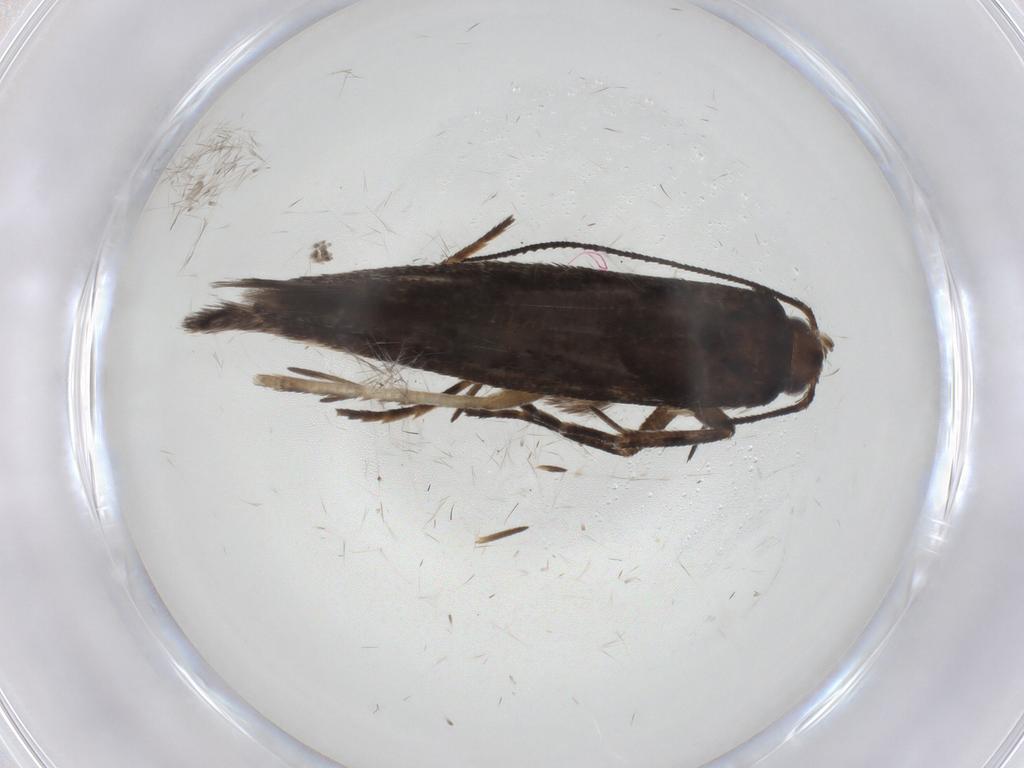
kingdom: Animalia
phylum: Arthropoda
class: Insecta
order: Lepidoptera
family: Gelechiidae
